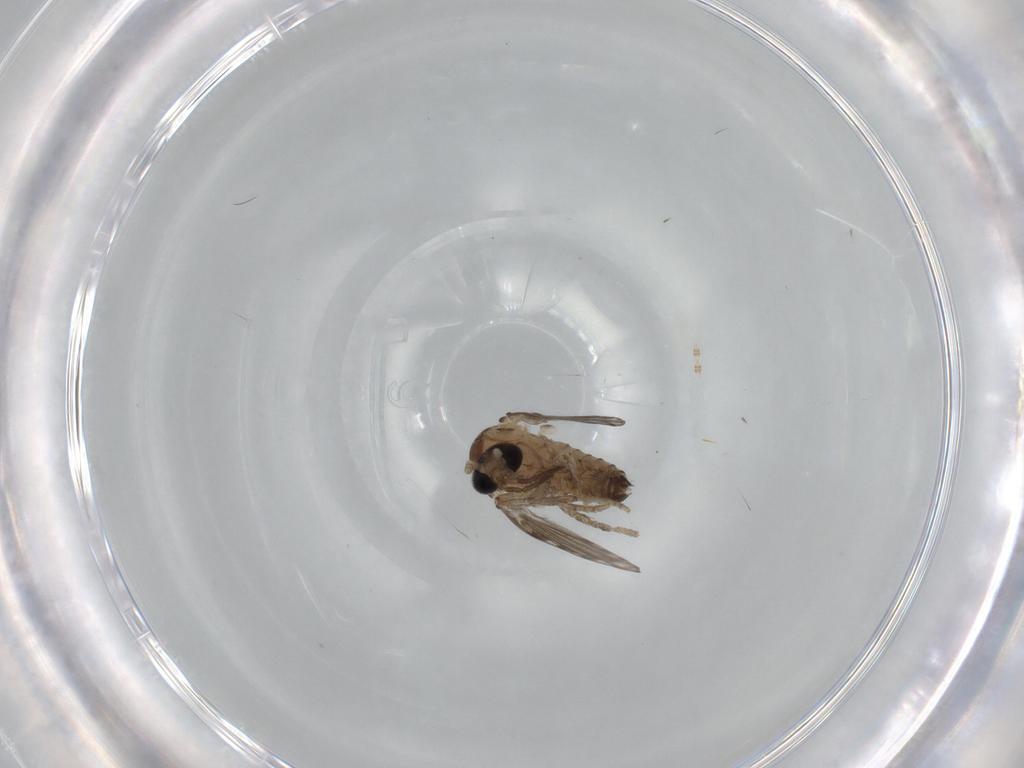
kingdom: Animalia
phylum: Arthropoda
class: Insecta
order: Diptera
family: Psychodidae
